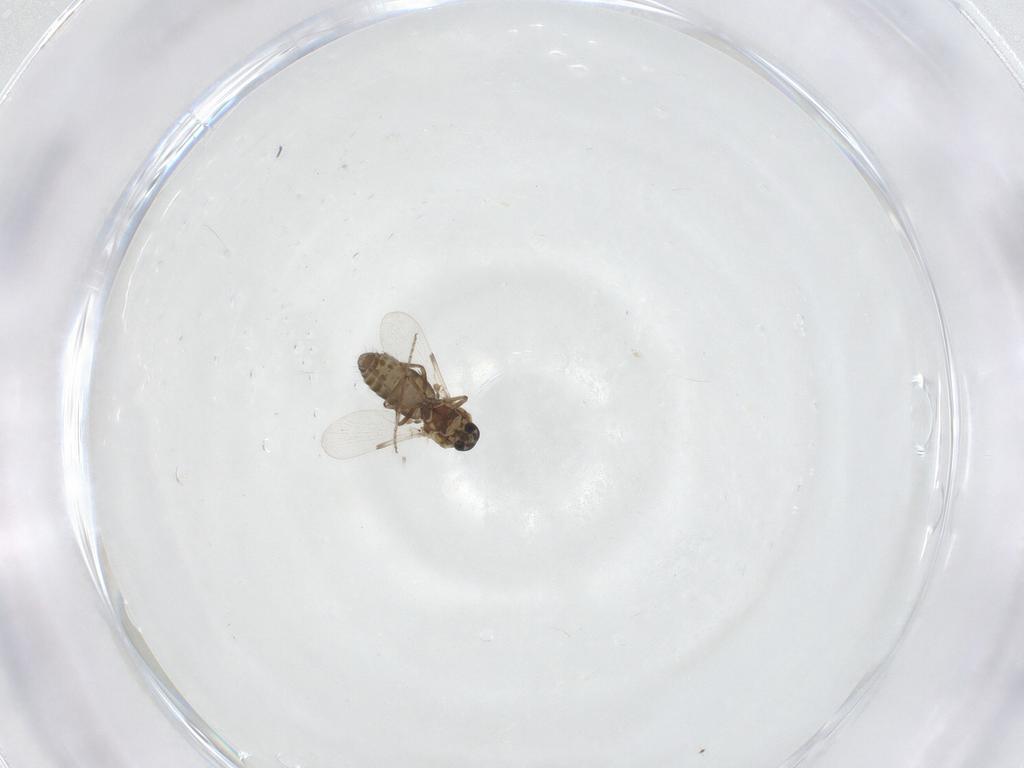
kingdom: Animalia
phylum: Arthropoda
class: Insecta
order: Diptera
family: Ceratopogonidae
